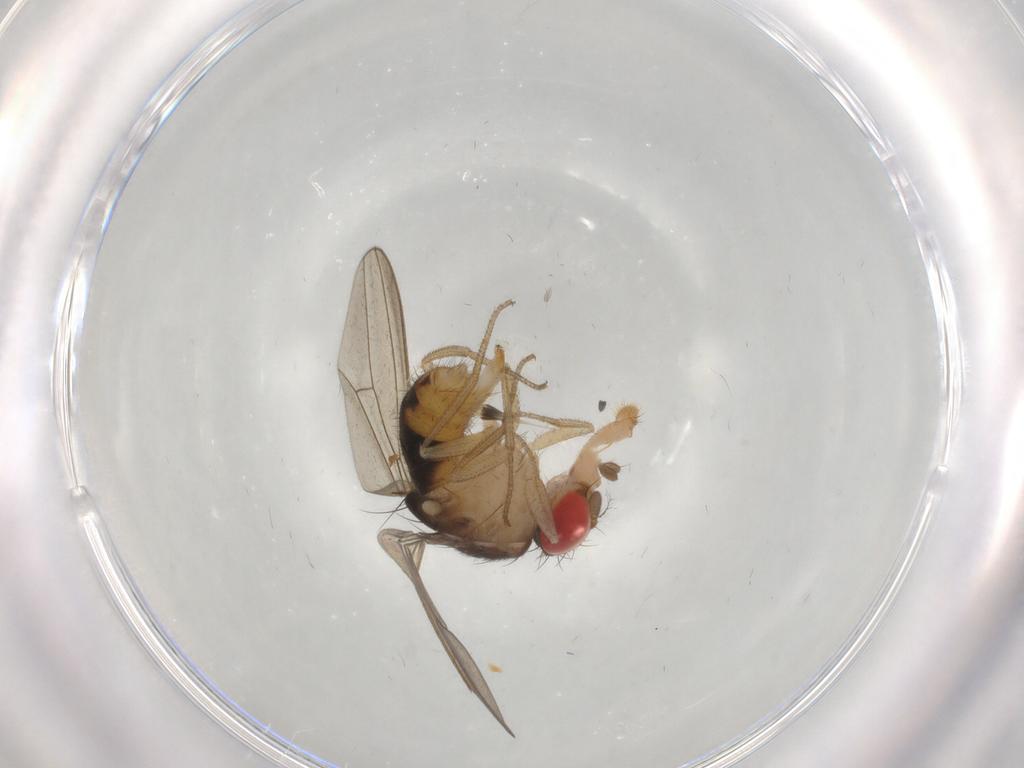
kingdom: Animalia
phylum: Arthropoda
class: Insecta
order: Diptera
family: Drosophilidae
